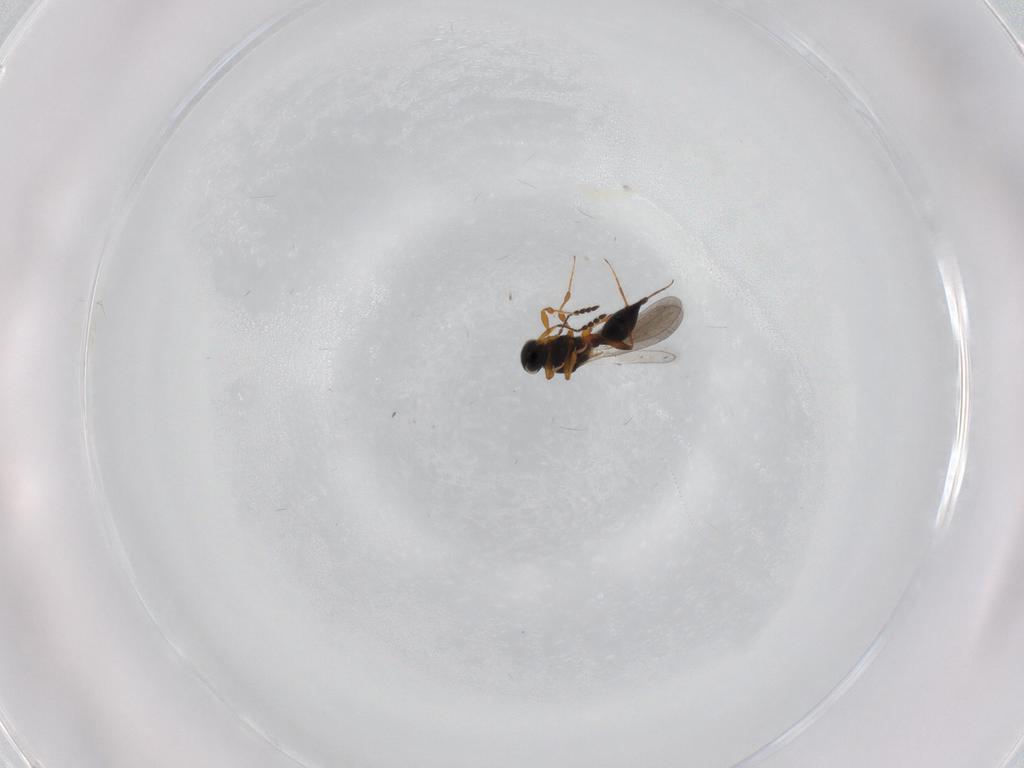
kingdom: Animalia
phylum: Arthropoda
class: Insecta
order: Hymenoptera
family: Platygastridae
